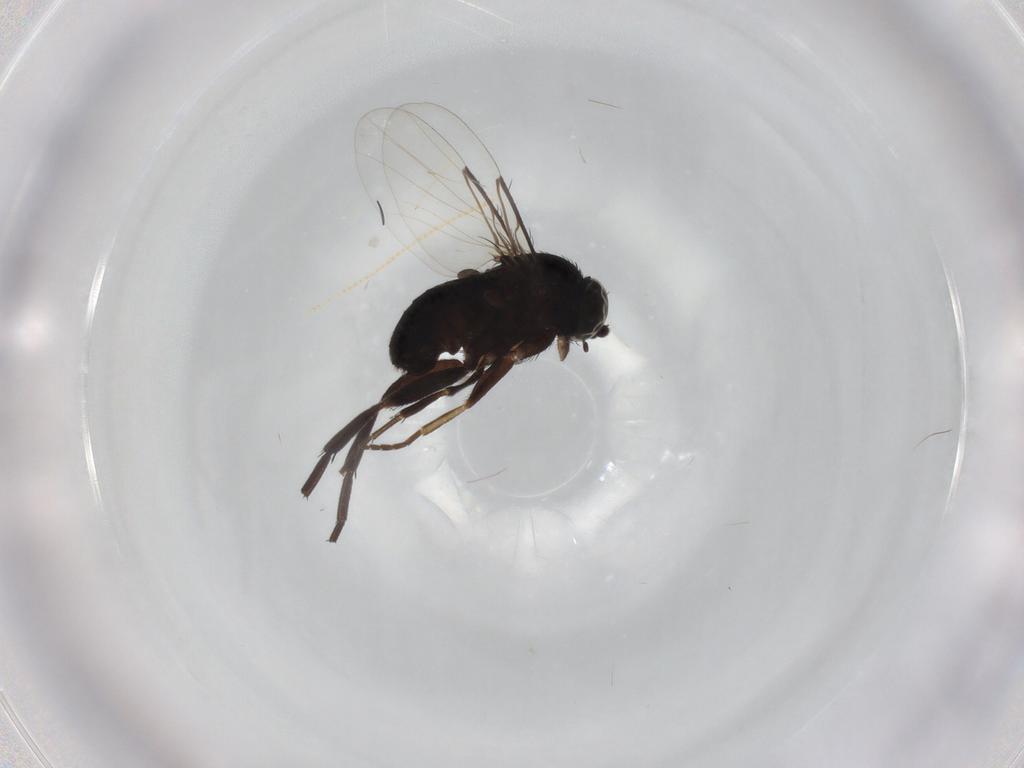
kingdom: Animalia
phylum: Arthropoda
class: Insecta
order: Diptera
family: Phoridae
